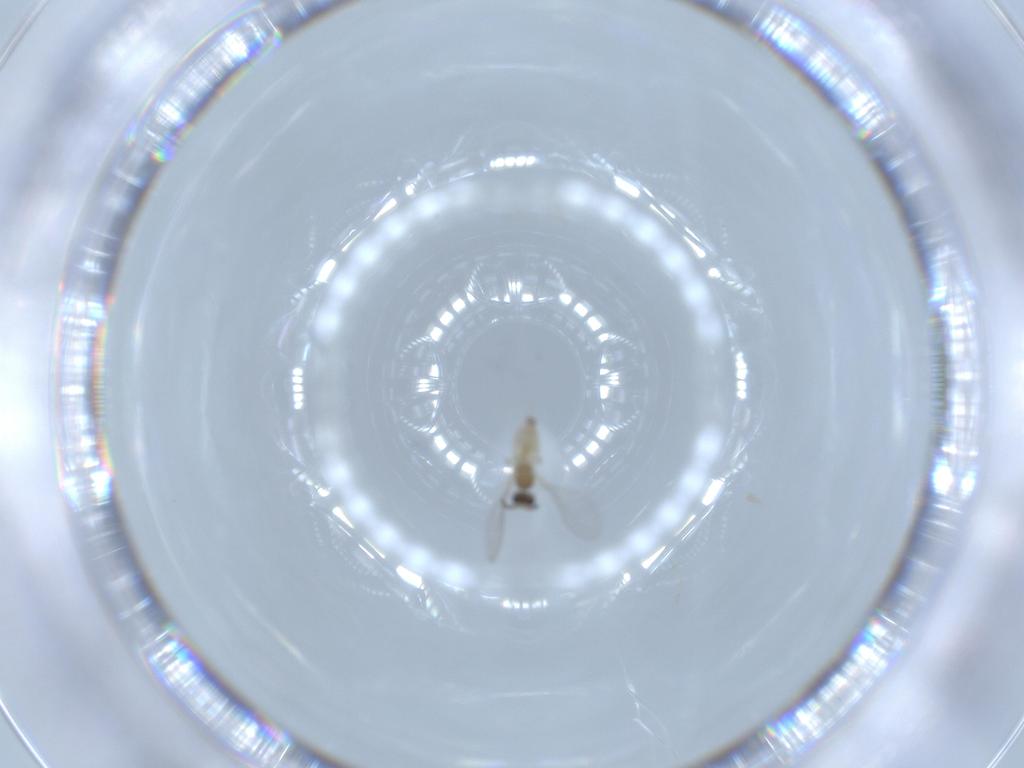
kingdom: Animalia
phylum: Arthropoda
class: Insecta
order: Diptera
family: Cecidomyiidae
